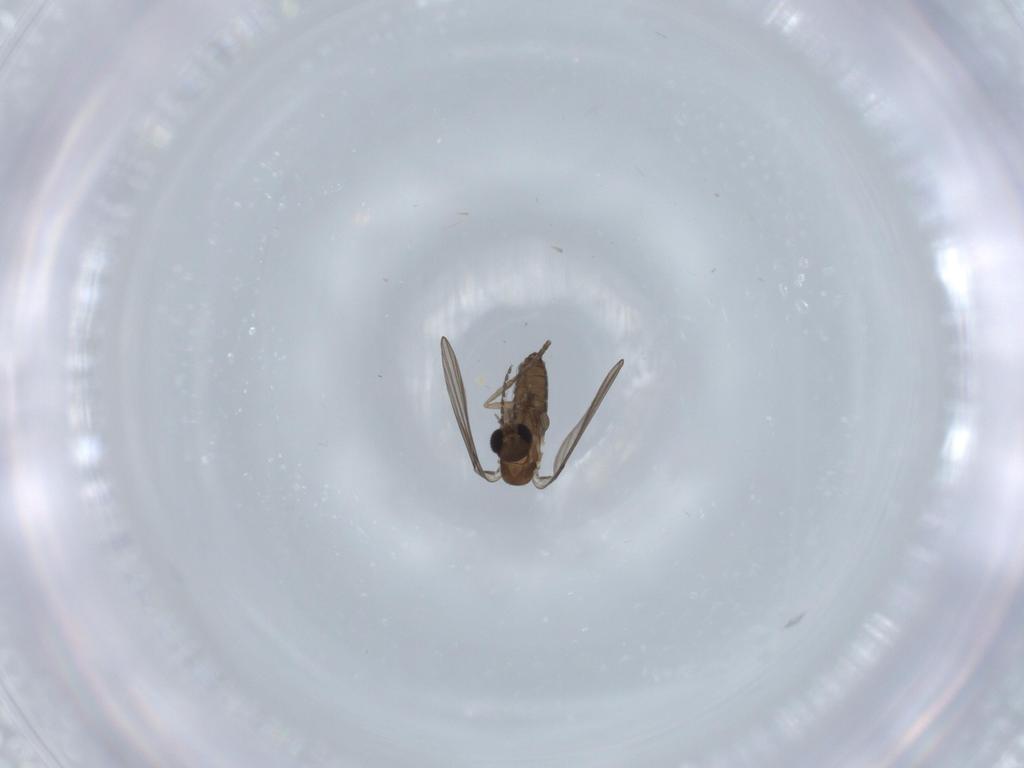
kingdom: Animalia
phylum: Arthropoda
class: Insecta
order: Diptera
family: Psychodidae
